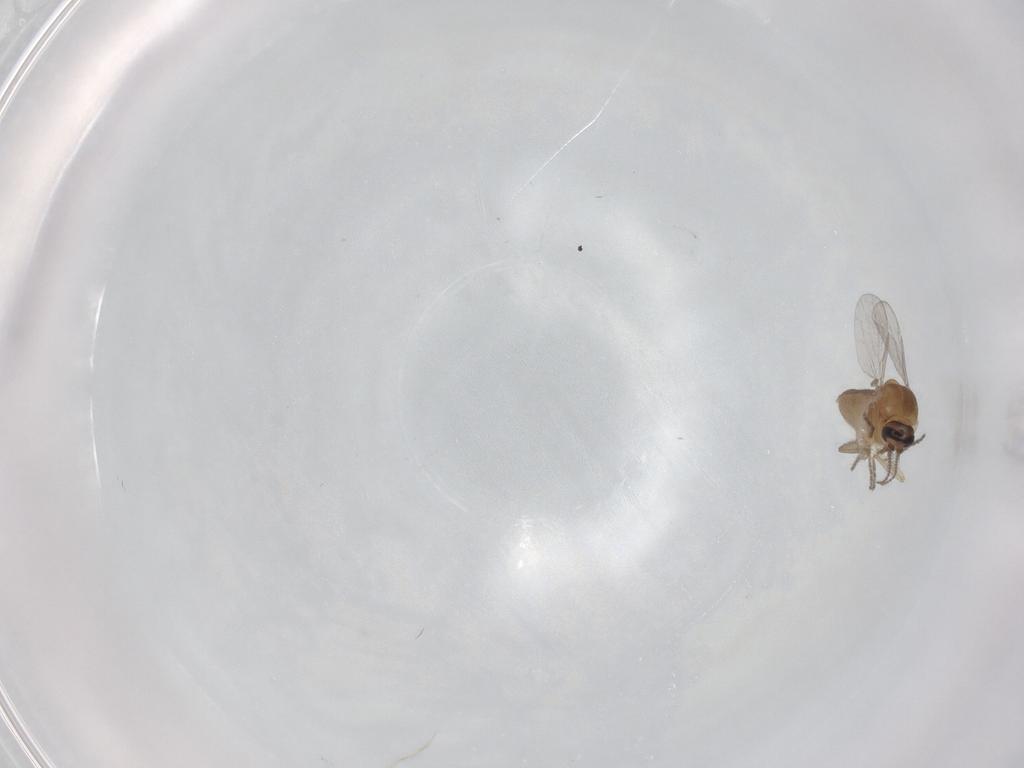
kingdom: Animalia
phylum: Arthropoda
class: Insecta
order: Diptera
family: Ceratopogonidae
